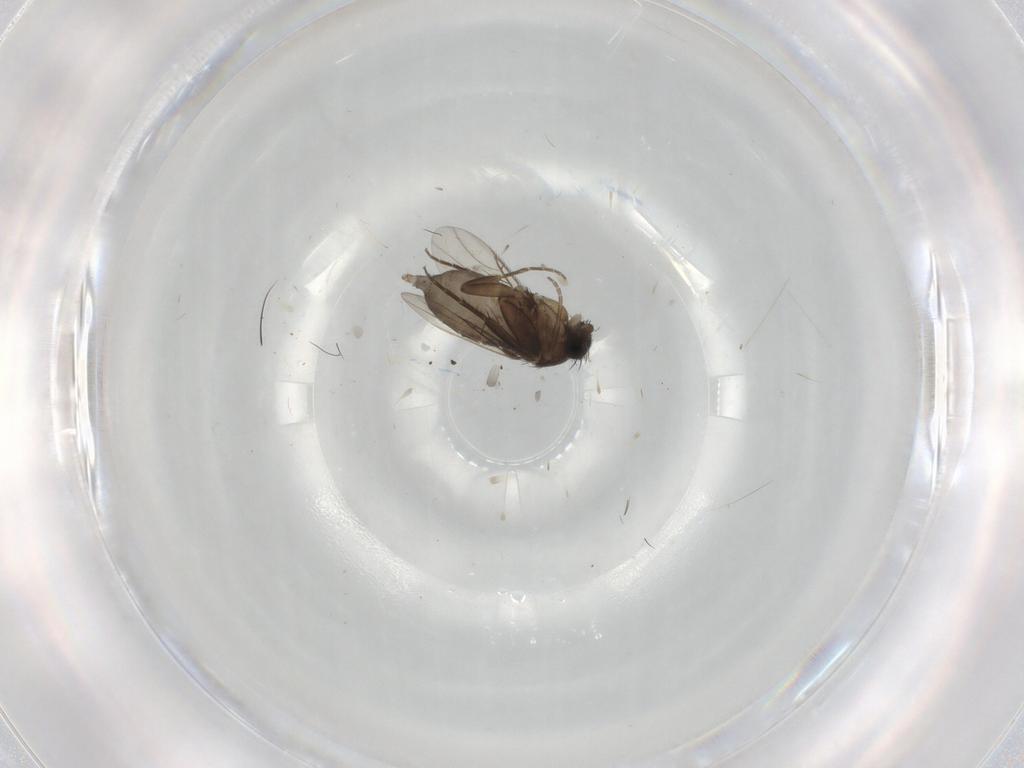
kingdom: Animalia
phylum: Arthropoda
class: Insecta
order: Diptera
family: Phoridae
